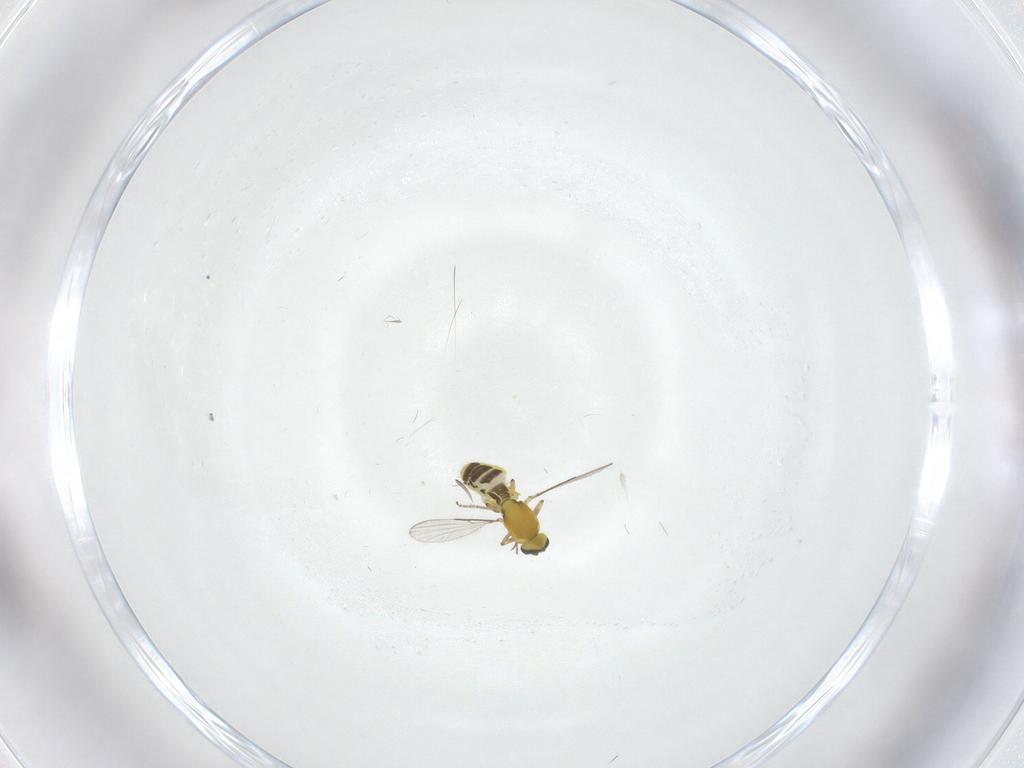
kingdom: Animalia
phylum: Arthropoda
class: Insecta
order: Diptera
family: Ceratopogonidae
